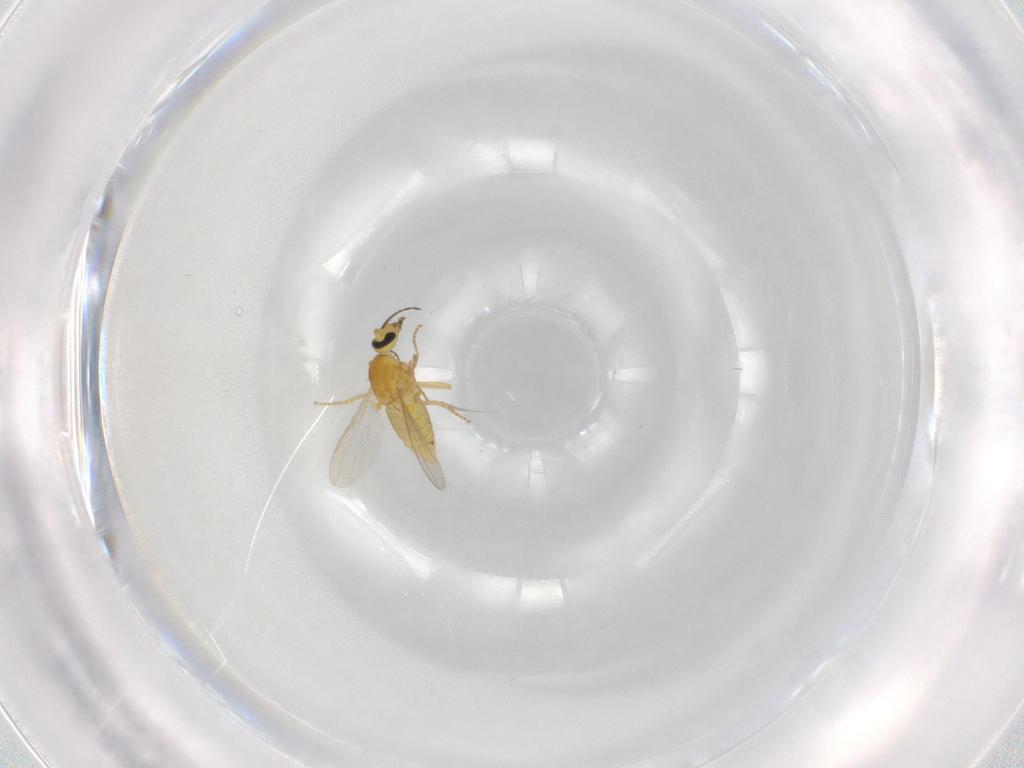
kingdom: Animalia
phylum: Arthropoda
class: Insecta
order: Diptera
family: Ceratopogonidae
